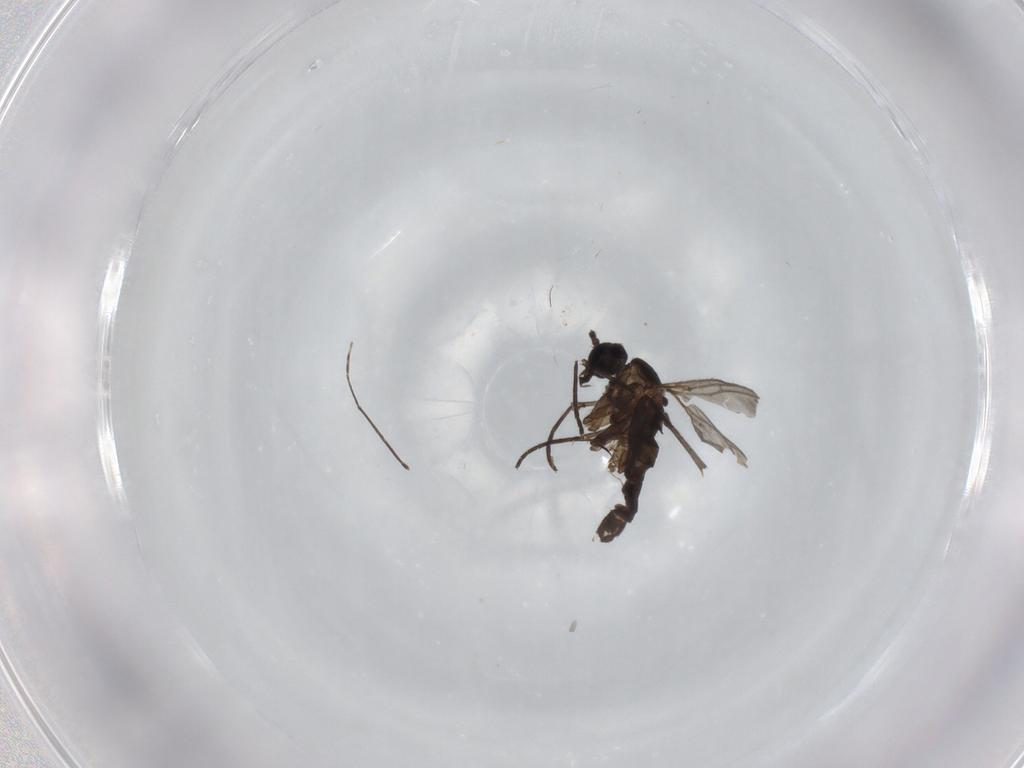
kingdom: Animalia
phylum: Arthropoda
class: Insecta
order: Diptera
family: Sciaridae
